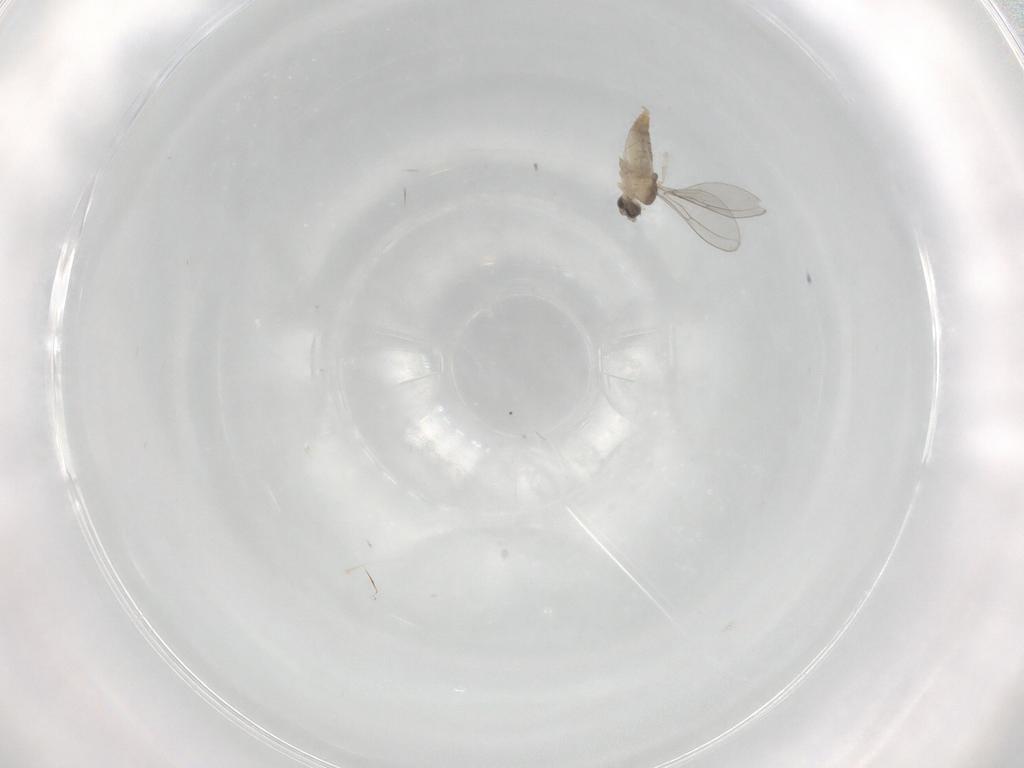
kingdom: Animalia
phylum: Arthropoda
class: Insecta
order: Diptera
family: Cecidomyiidae
